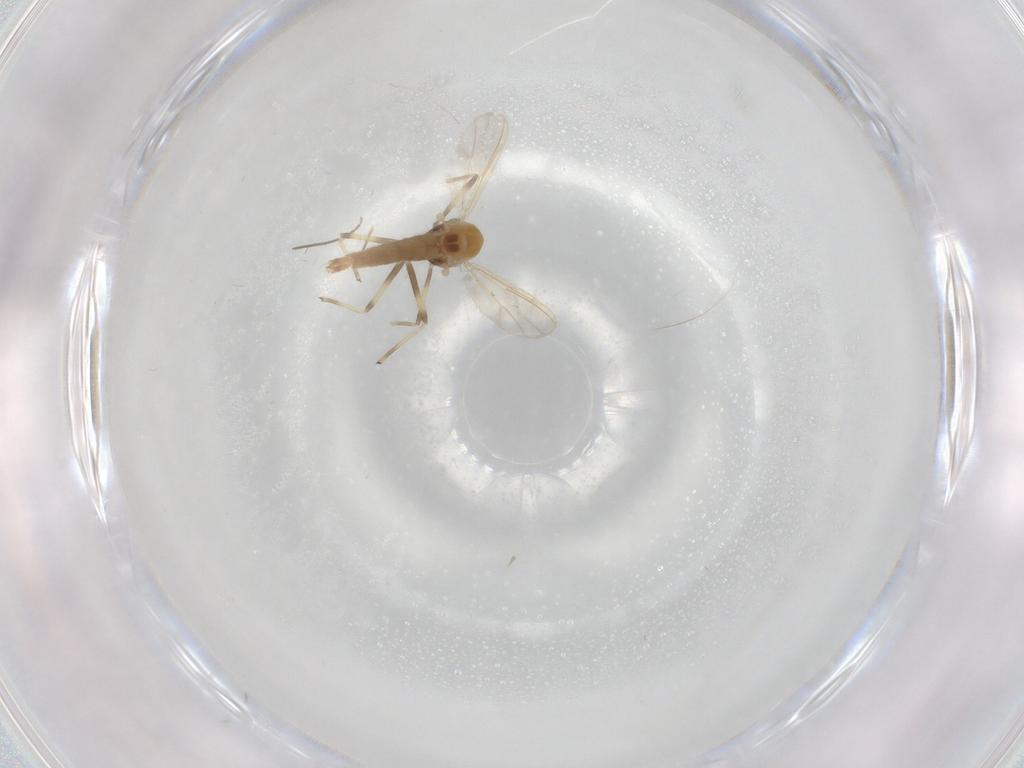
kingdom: Animalia
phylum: Arthropoda
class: Insecta
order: Diptera
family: Chironomidae
